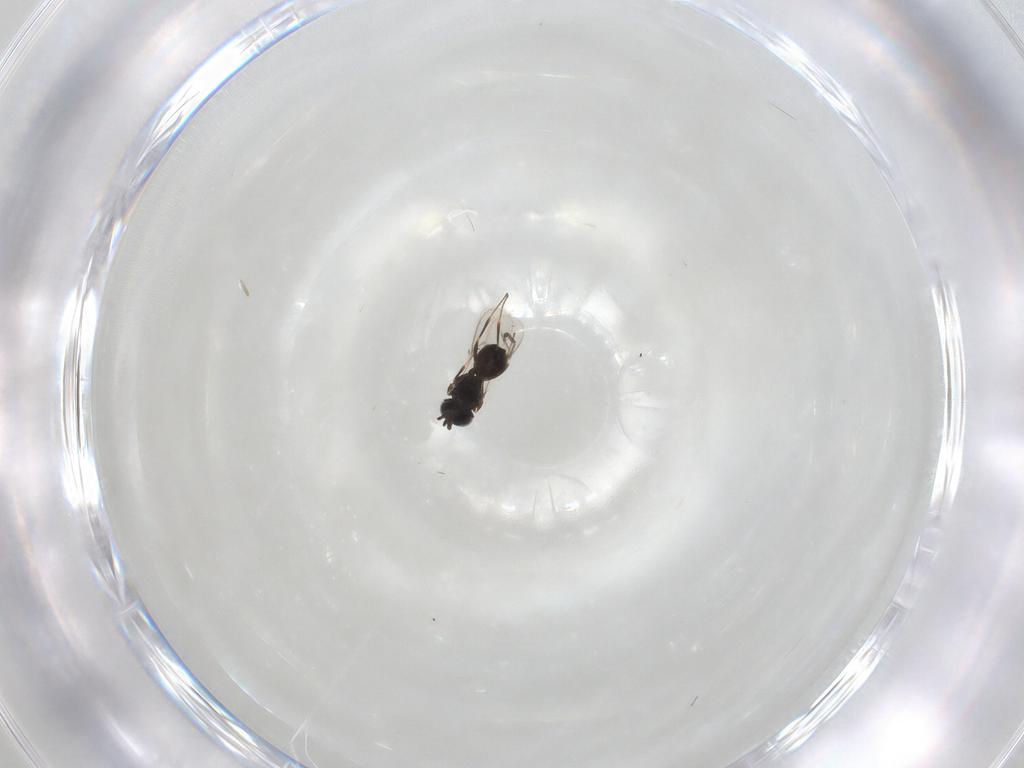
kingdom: Animalia
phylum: Arthropoda
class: Insecta
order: Hymenoptera
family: Scelionidae
